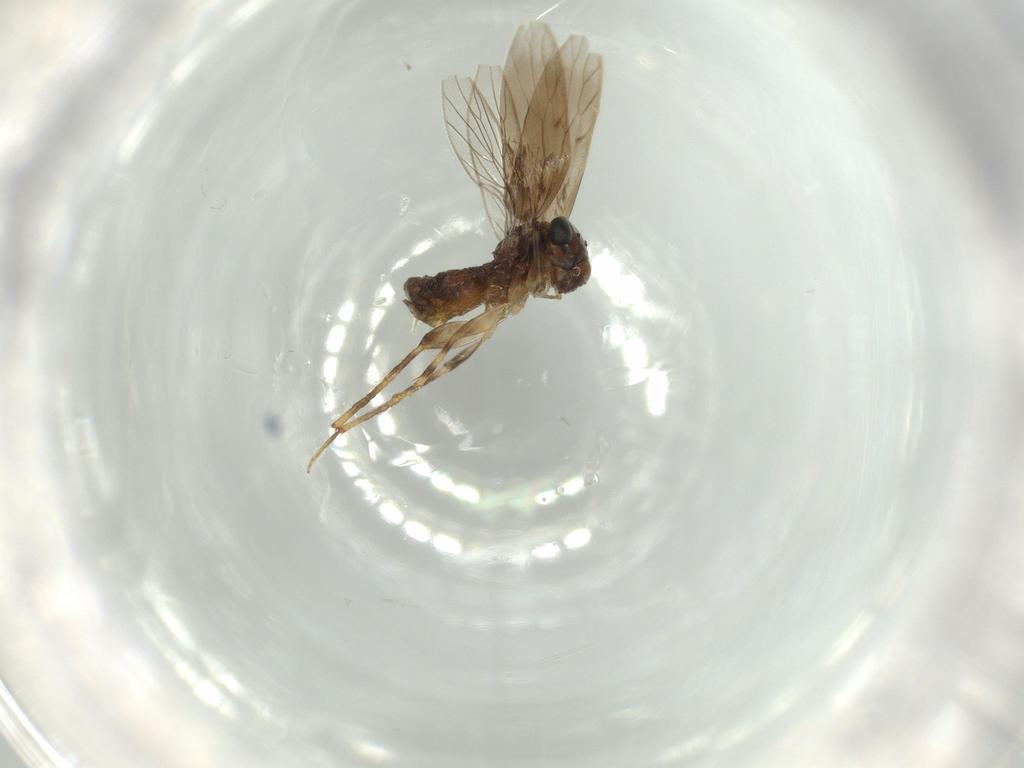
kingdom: Animalia
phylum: Arthropoda
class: Insecta
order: Psocodea
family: Lepidopsocidae
